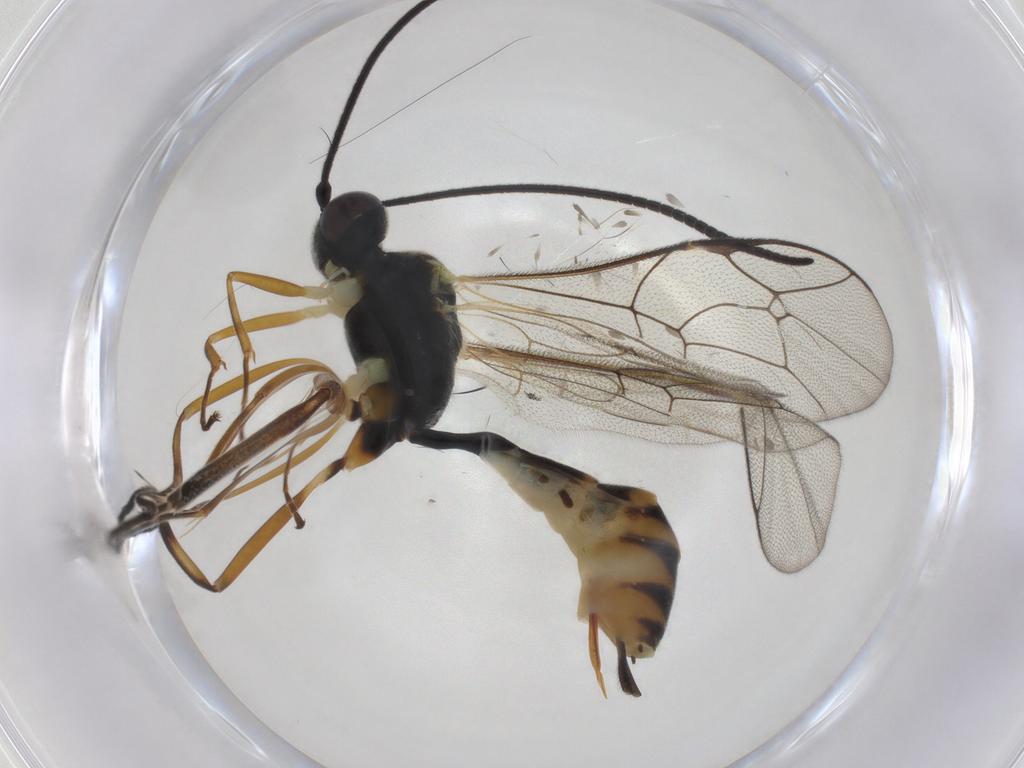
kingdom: Animalia
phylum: Arthropoda
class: Insecta
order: Hymenoptera
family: Ichneumonidae
